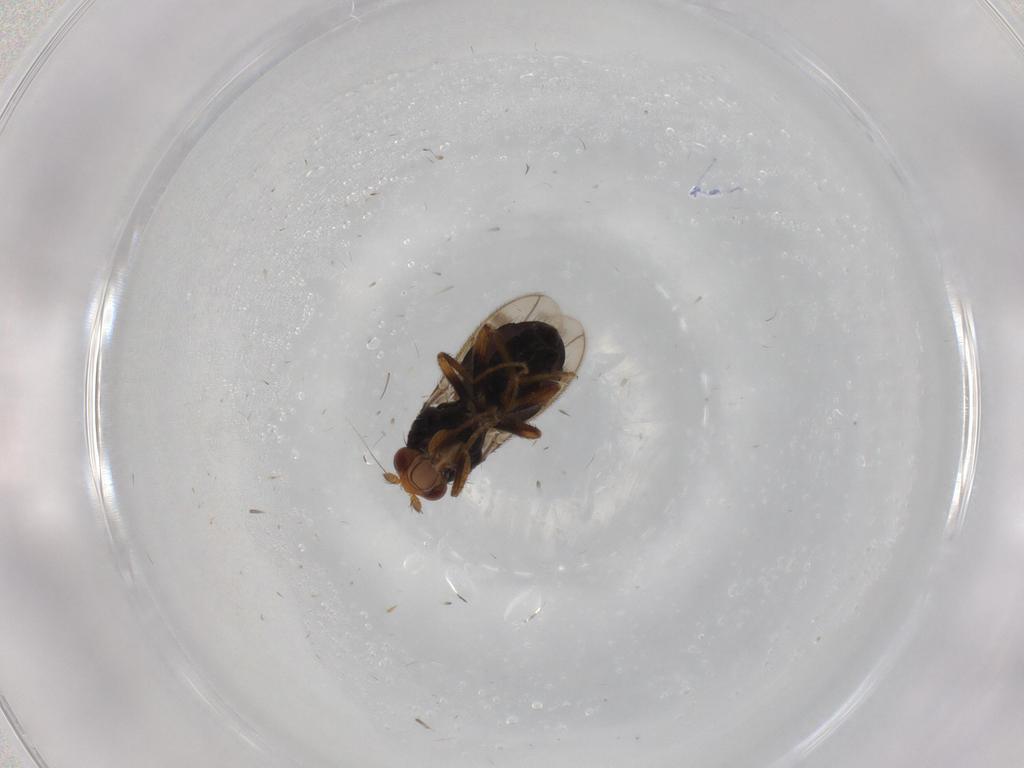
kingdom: Animalia
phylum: Arthropoda
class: Insecta
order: Diptera
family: Sphaeroceridae
